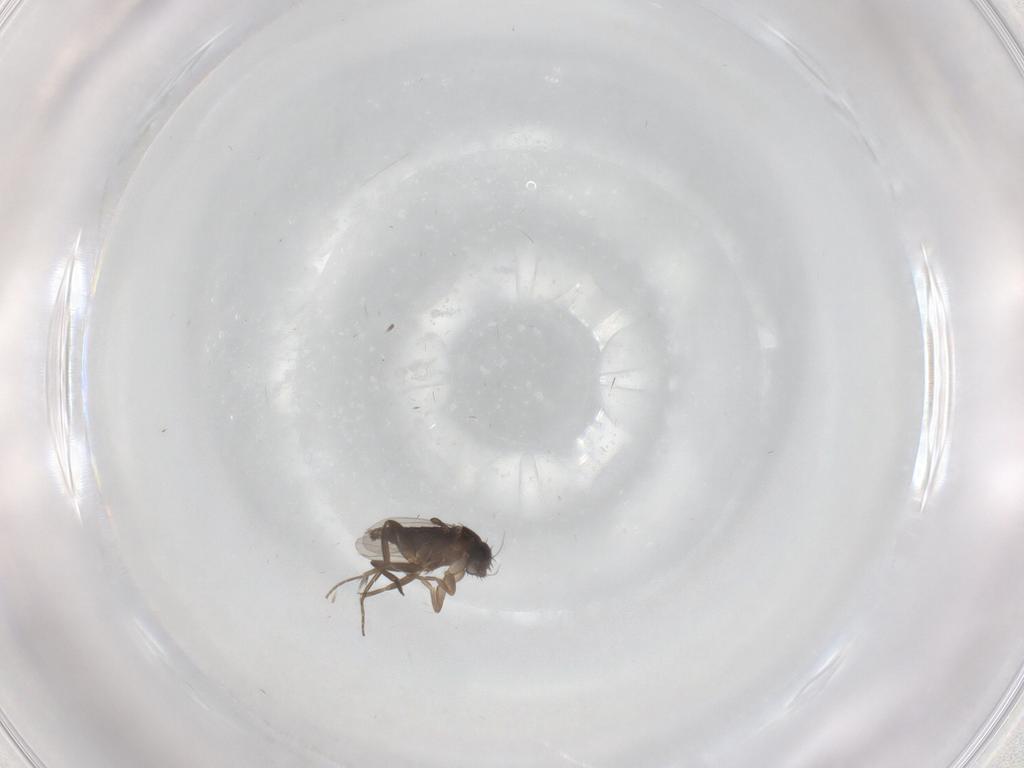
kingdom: Animalia
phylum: Arthropoda
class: Insecta
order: Diptera
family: Phoridae
